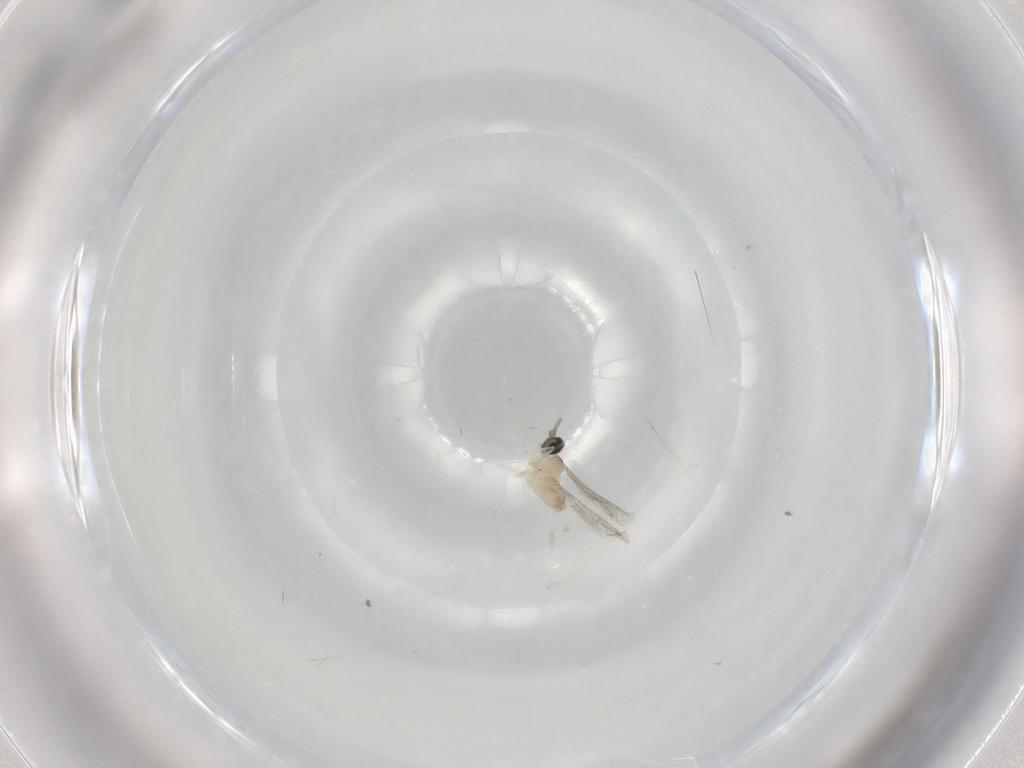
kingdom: Animalia
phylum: Arthropoda
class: Insecta
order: Diptera
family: Cecidomyiidae
